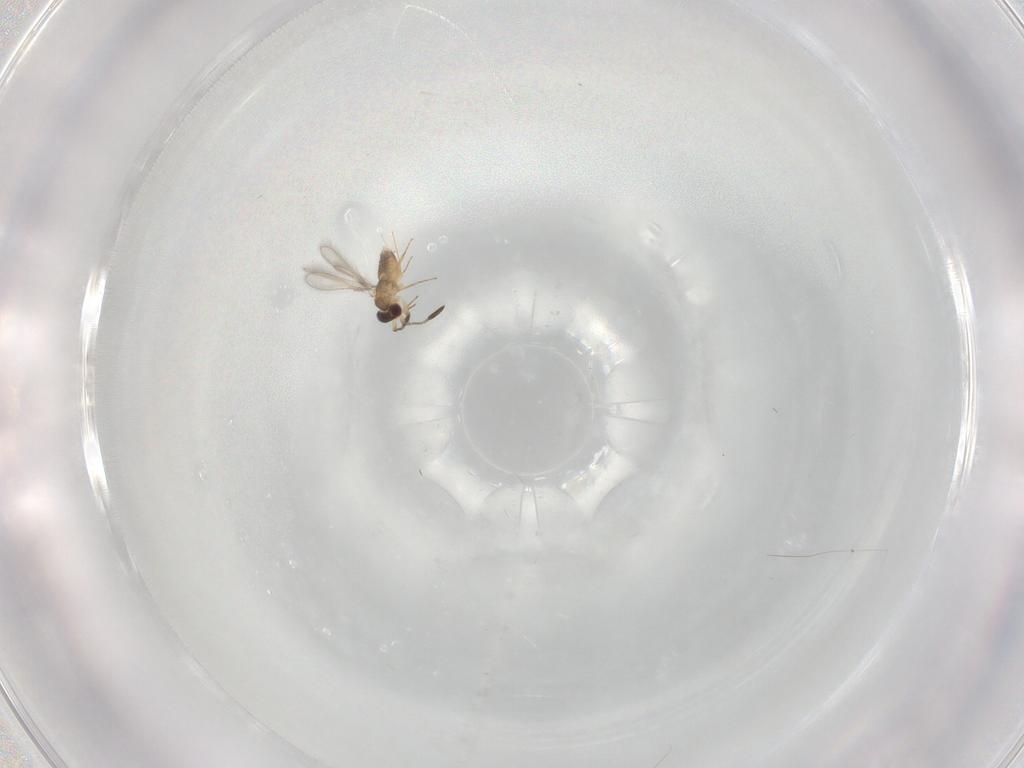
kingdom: Animalia
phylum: Arthropoda
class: Insecta
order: Hymenoptera
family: Mymaridae
